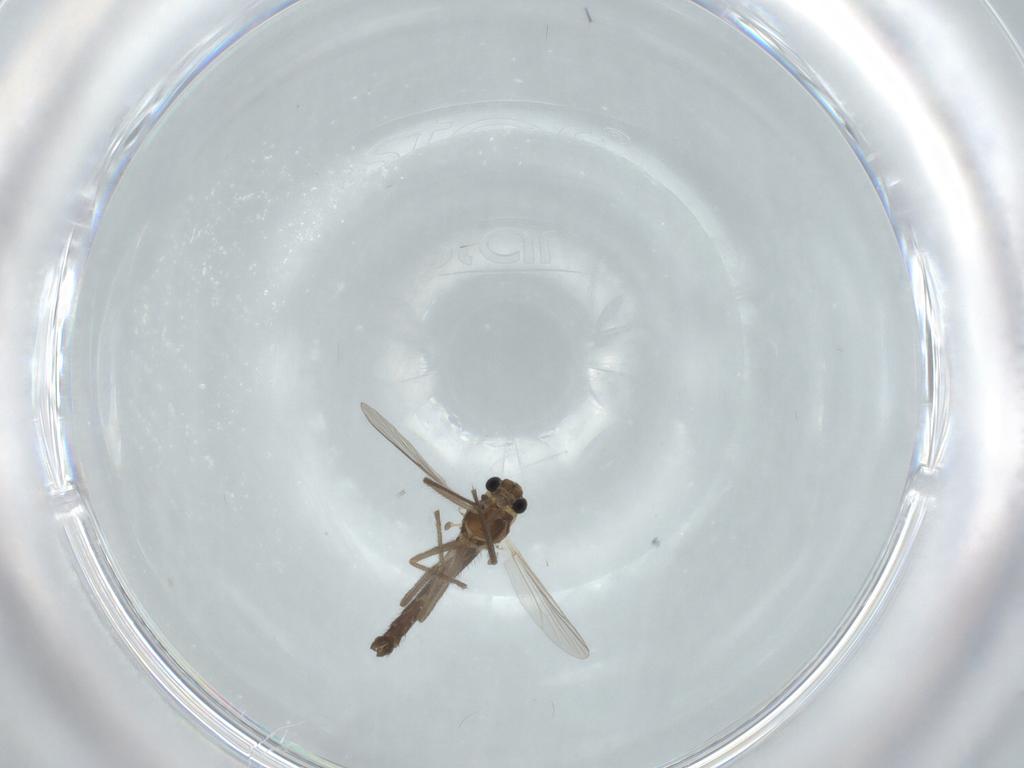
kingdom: Animalia
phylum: Arthropoda
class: Insecta
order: Diptera
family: Chironomidae
